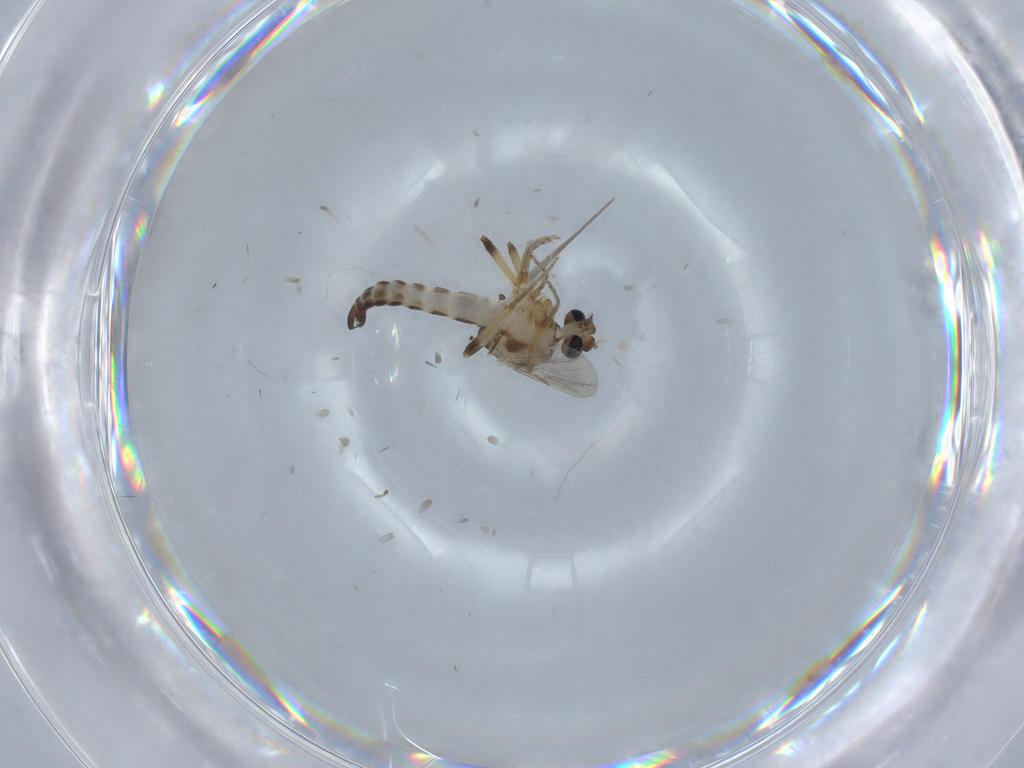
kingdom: Animalia
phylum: Arthropoda
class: Insecta
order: Diptera
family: Ceratopogonidae
